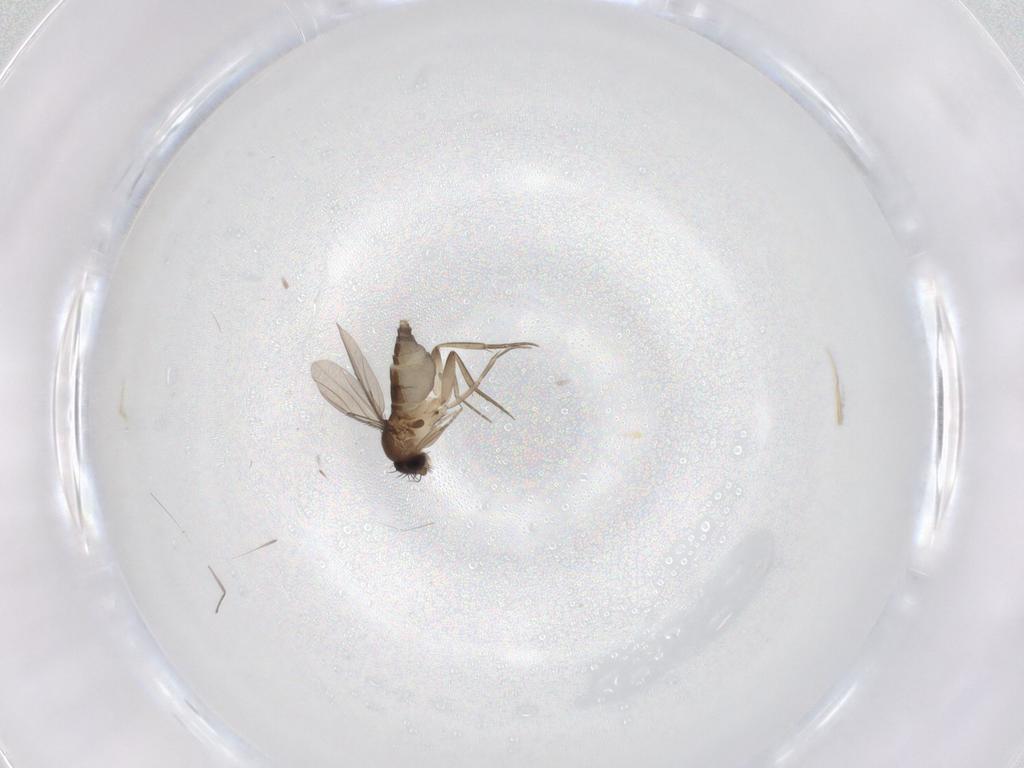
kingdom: Animalia
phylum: Arthropoda
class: Insecta
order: Diptera
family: Phoridae
